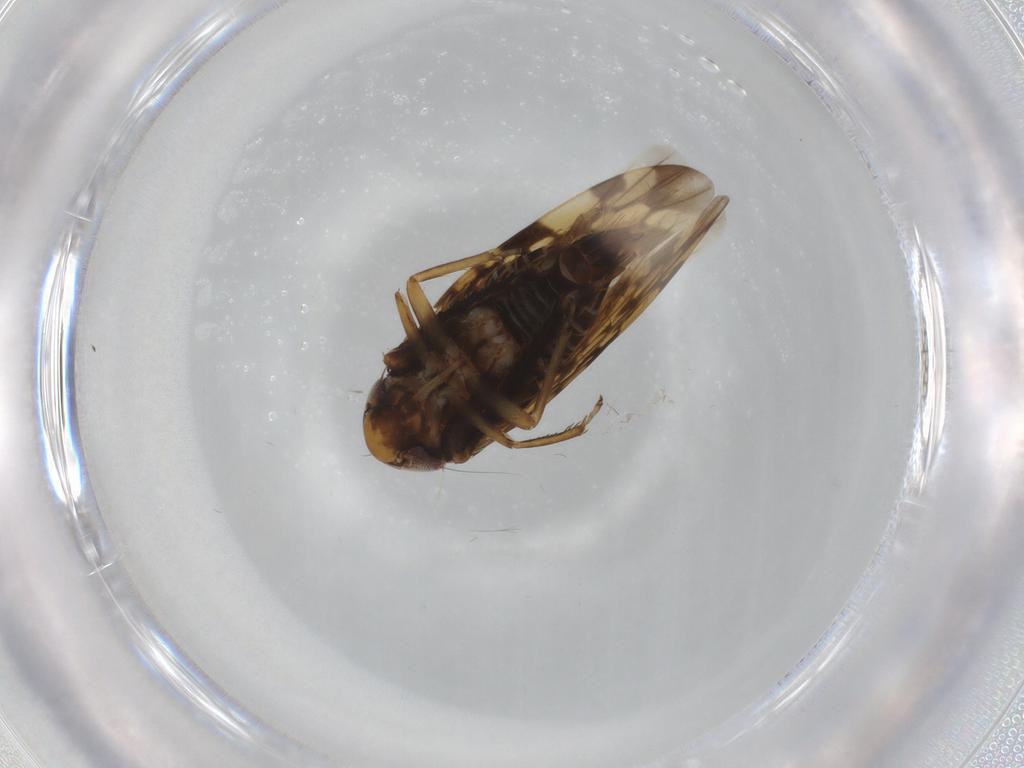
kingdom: Animalia
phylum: Arthropoda
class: Insecta
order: Hemiptera
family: Cicadellidae
